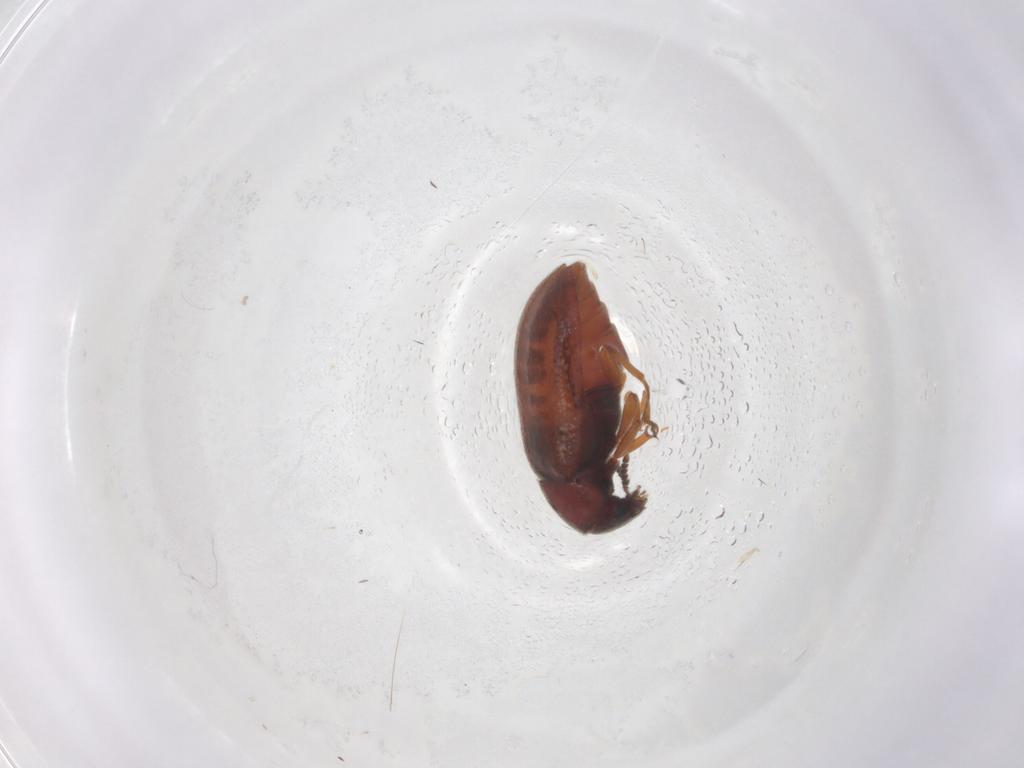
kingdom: Animalia
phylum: Arthropoda
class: Insecta
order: Coleoptera
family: Rhadalidae
